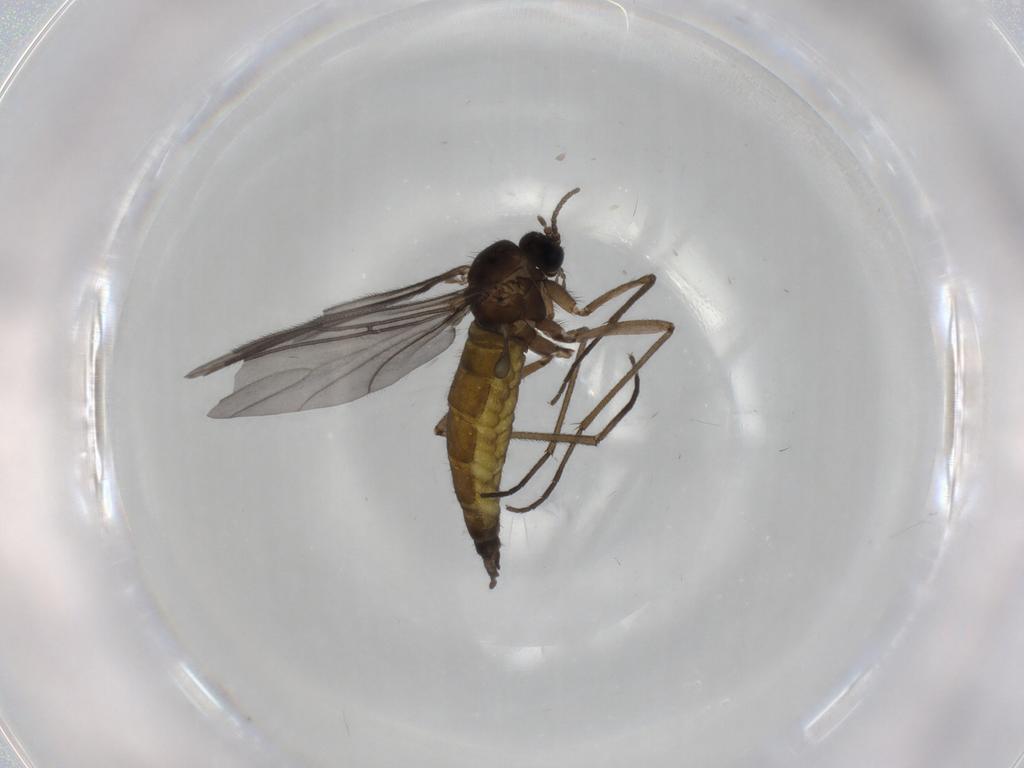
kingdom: Animalia
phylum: Arthropoda
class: Insecta
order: Diptera
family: Sciaridae
